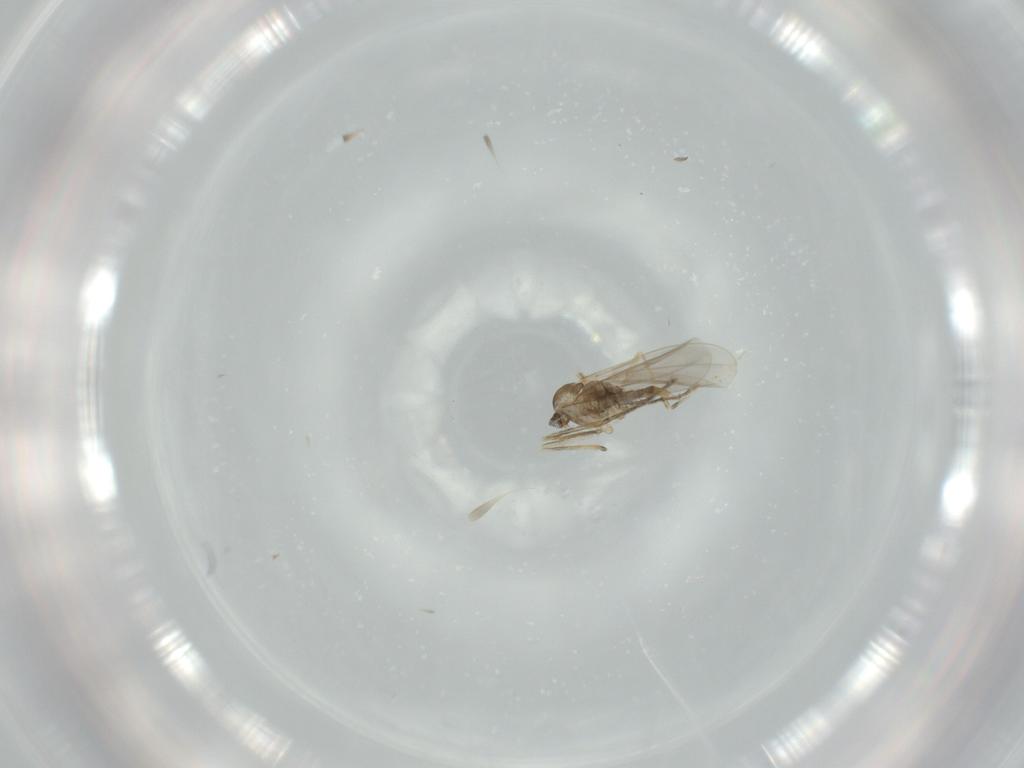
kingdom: Animalia
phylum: Arthropoda
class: Insecta
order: Diptera
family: Cecidomyiidae
